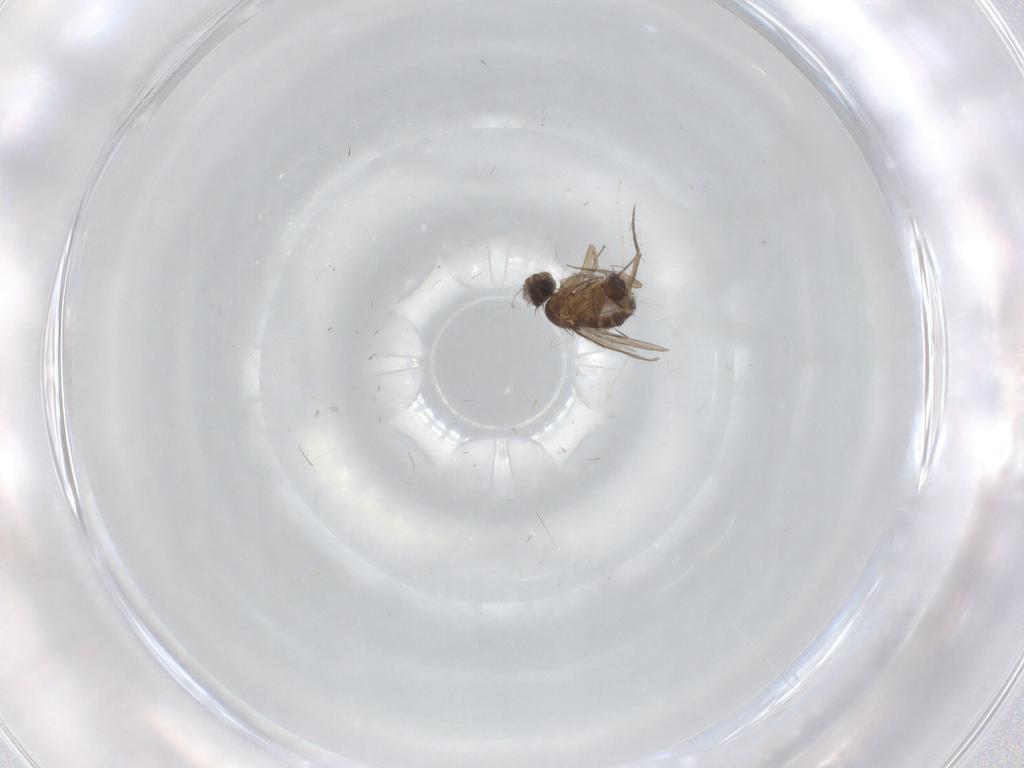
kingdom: Animalia
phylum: Arthropoda
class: Insecta
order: Diptera
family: Phoridae
